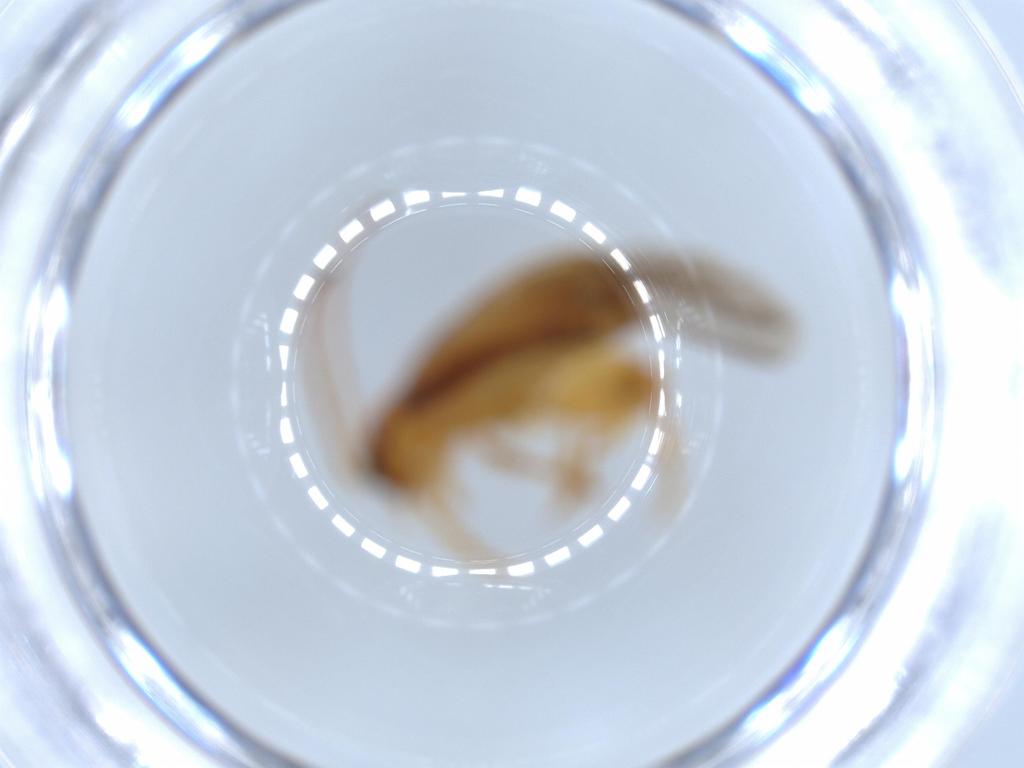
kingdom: Animalia
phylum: Arthropoda
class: Insecta
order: Coleoptera
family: Chrysomelidae
